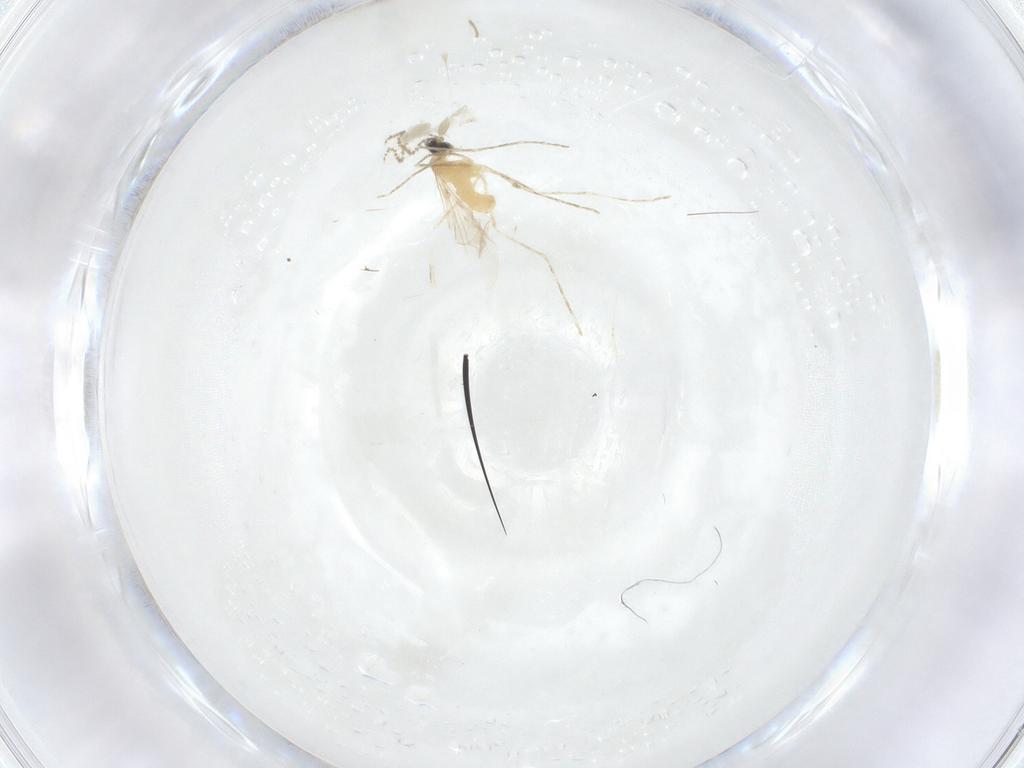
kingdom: Animalia
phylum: Arthropoda
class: Insecta
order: Diptera
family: Cecidomyiidae
